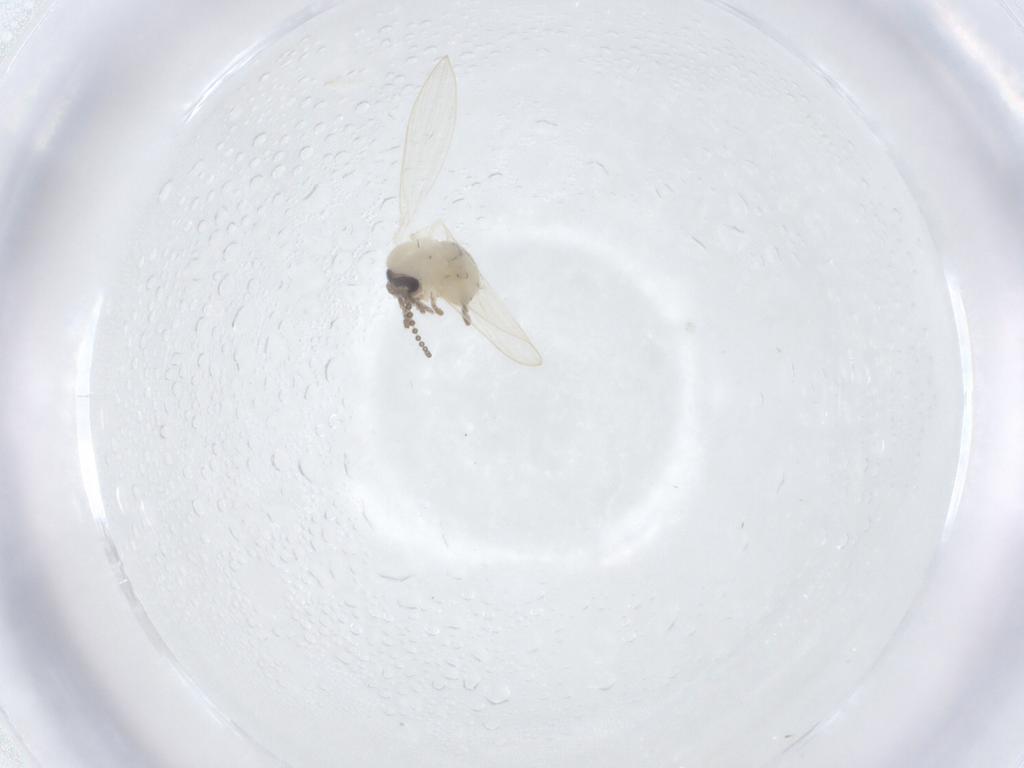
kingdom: Animalia
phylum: Arthropoda
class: Insecta
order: Diptera
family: Psychodidae
